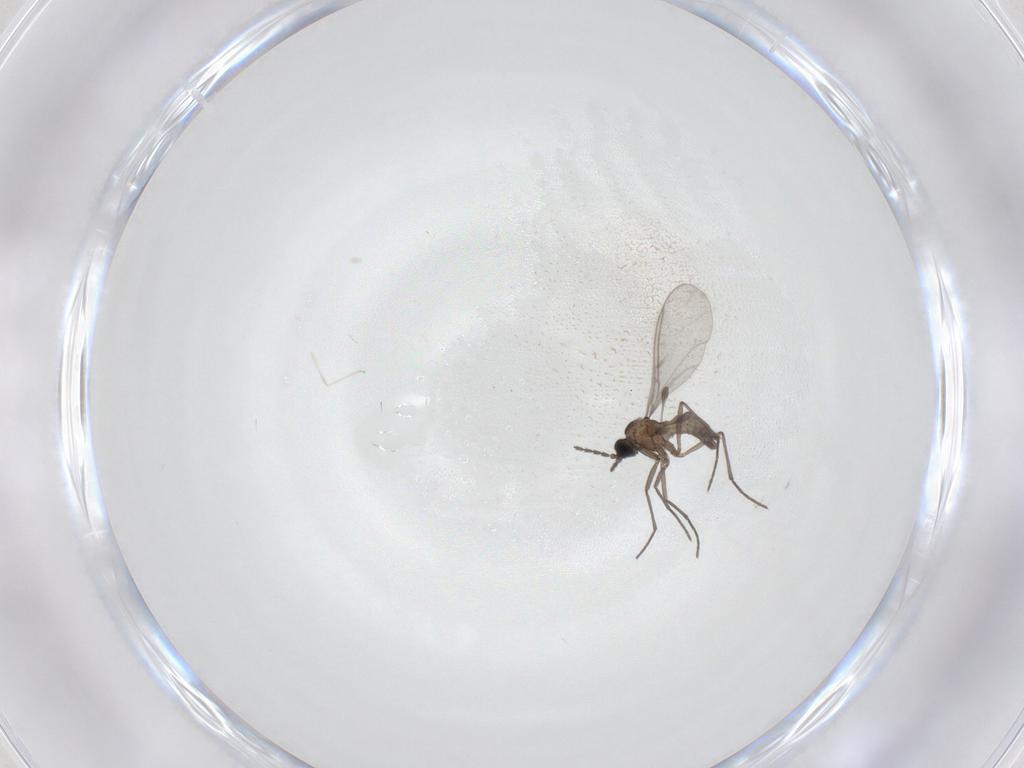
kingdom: Animalia
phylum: Arthropoda
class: Insecta
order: Diptera
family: Sciaridae
